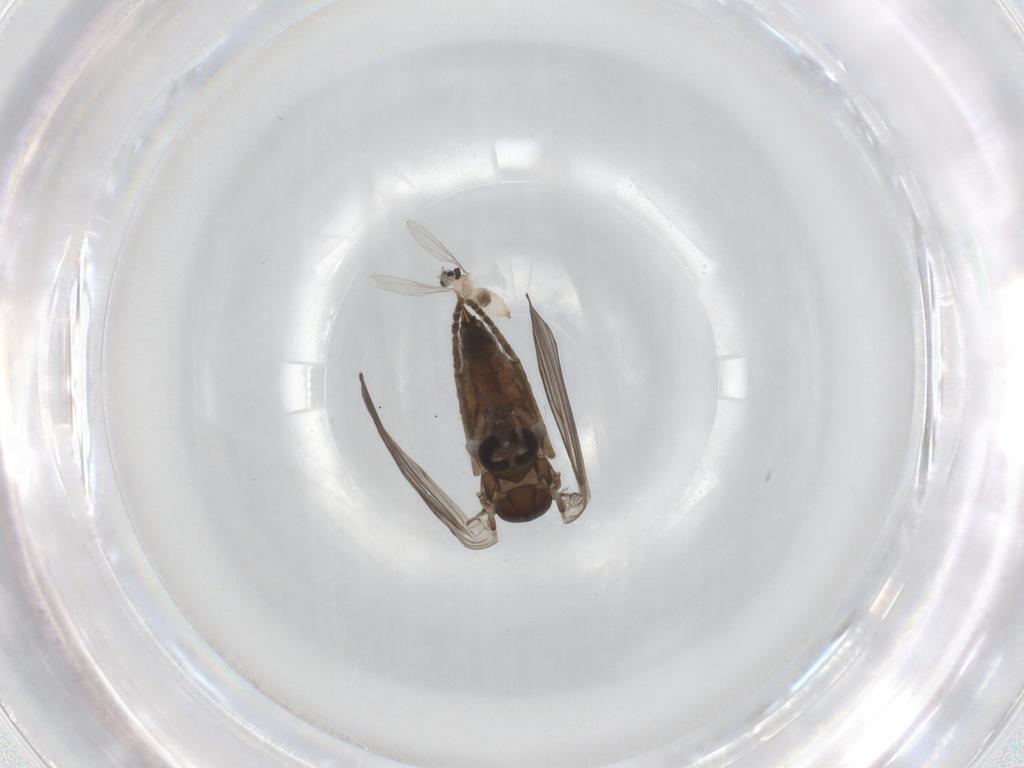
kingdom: Animalia
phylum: Arthropoda
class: Insecta
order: Diptera
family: Psychodidae
